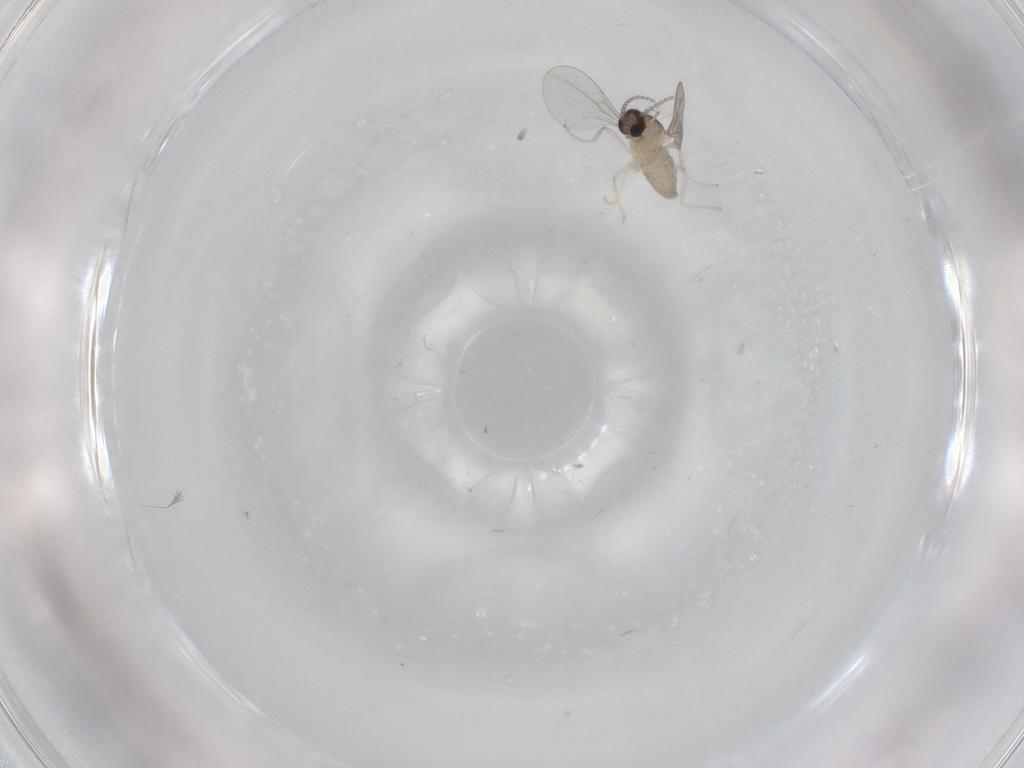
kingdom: Animalia
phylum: Arthropoda
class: Insecta
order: Diptera
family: Cecidomyiidae
